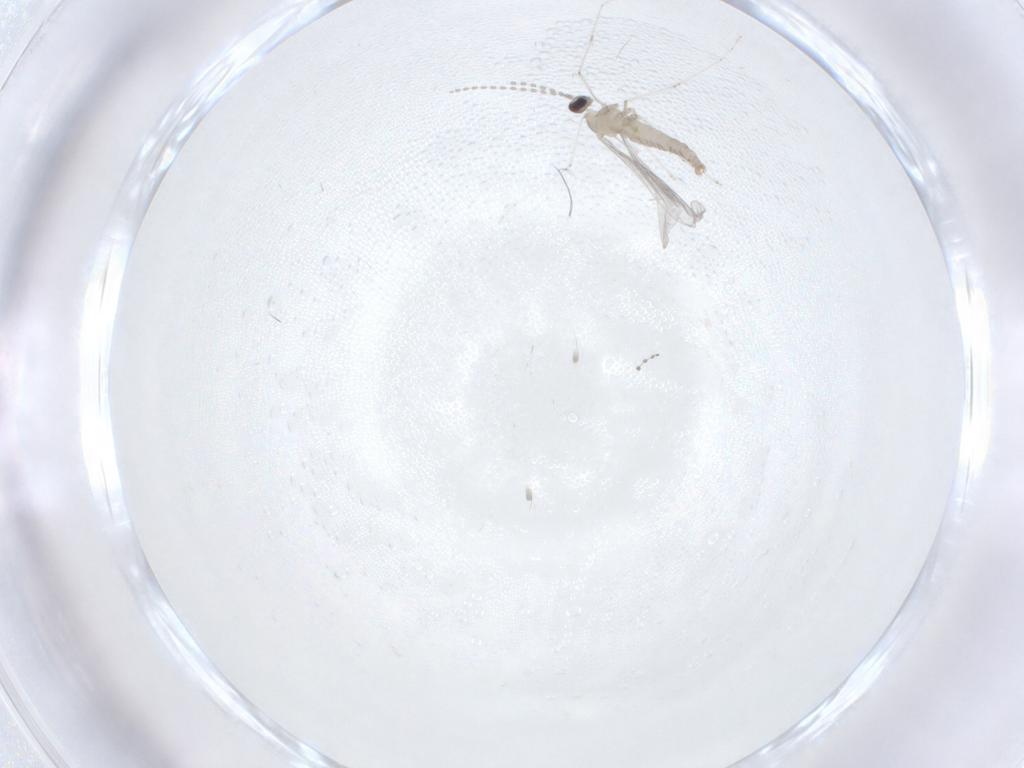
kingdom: Animalia
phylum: Arthropoda
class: Insecta
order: Diptera
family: Cecidomyiidae
